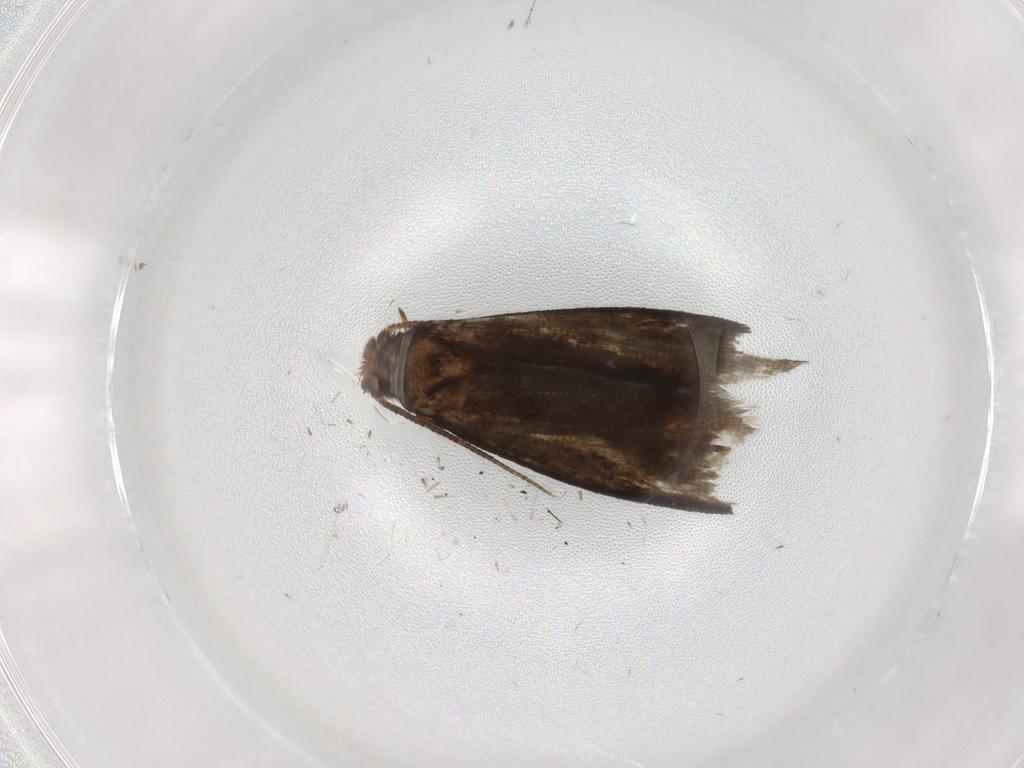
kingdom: Animalia
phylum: Arthropoda
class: Insecta
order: Lepidoptera
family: Crambidae
